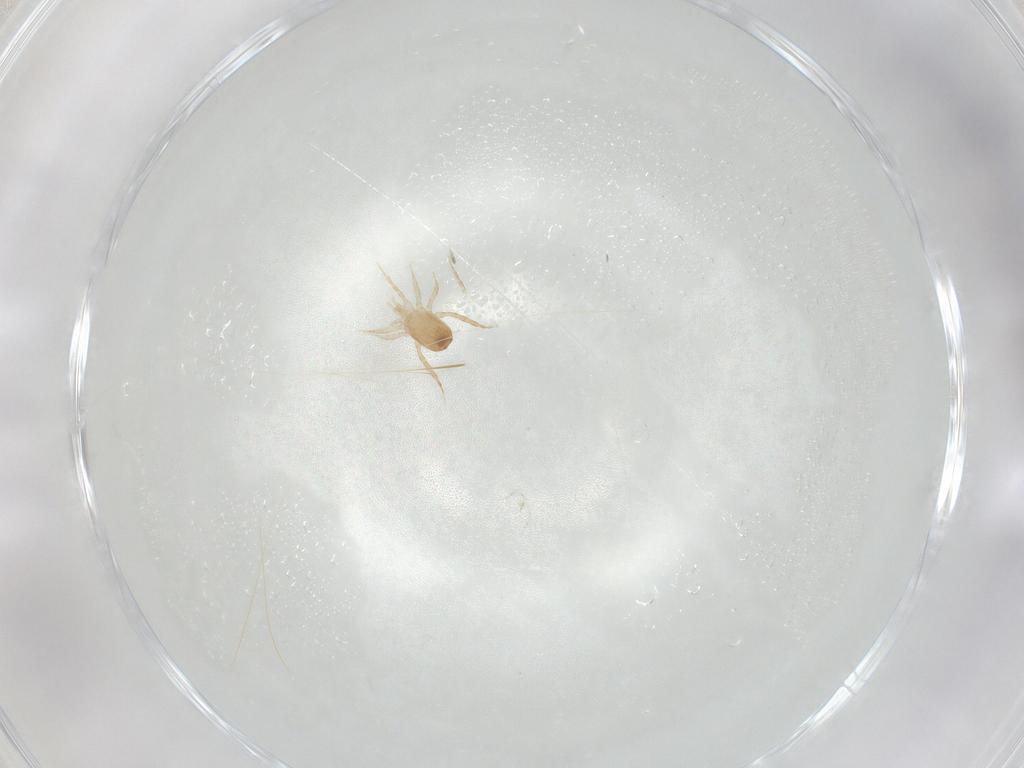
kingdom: Animalia
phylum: Arthropoda
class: Arachnida
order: Mesostigmata
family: Blattisociidae
